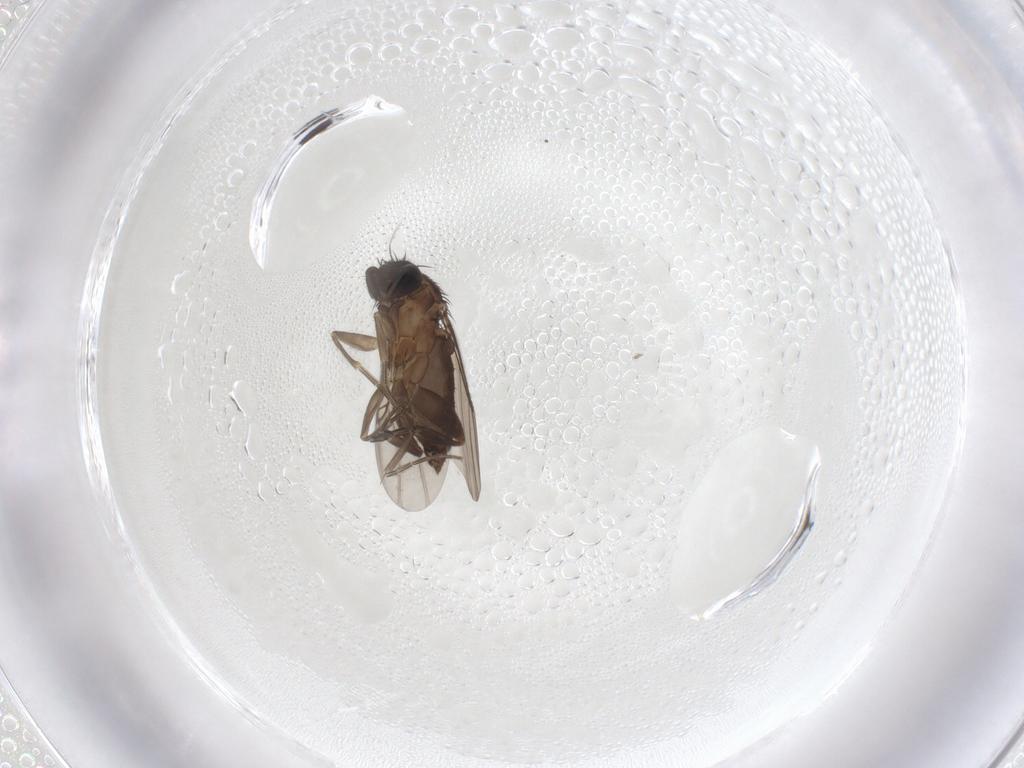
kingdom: Animalia
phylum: Arthropoda
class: Insecta
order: Diptera
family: Phoridae
